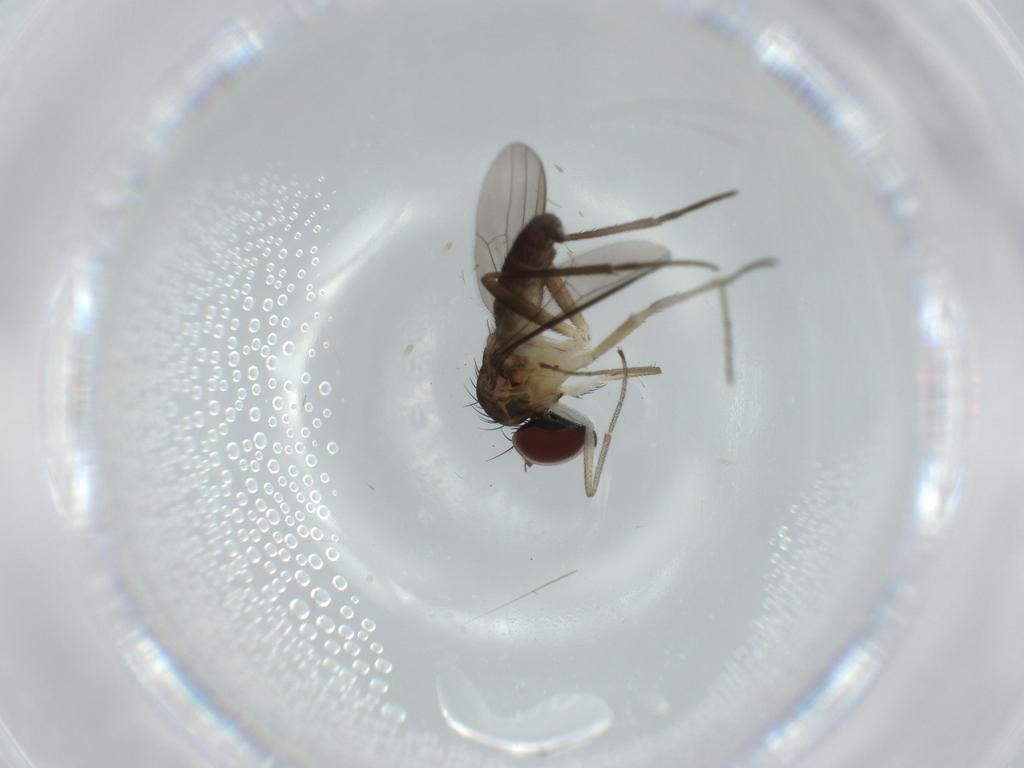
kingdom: Animalia
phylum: Arthropoda
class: Insecta
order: Diptera
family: Dolichopodidae
